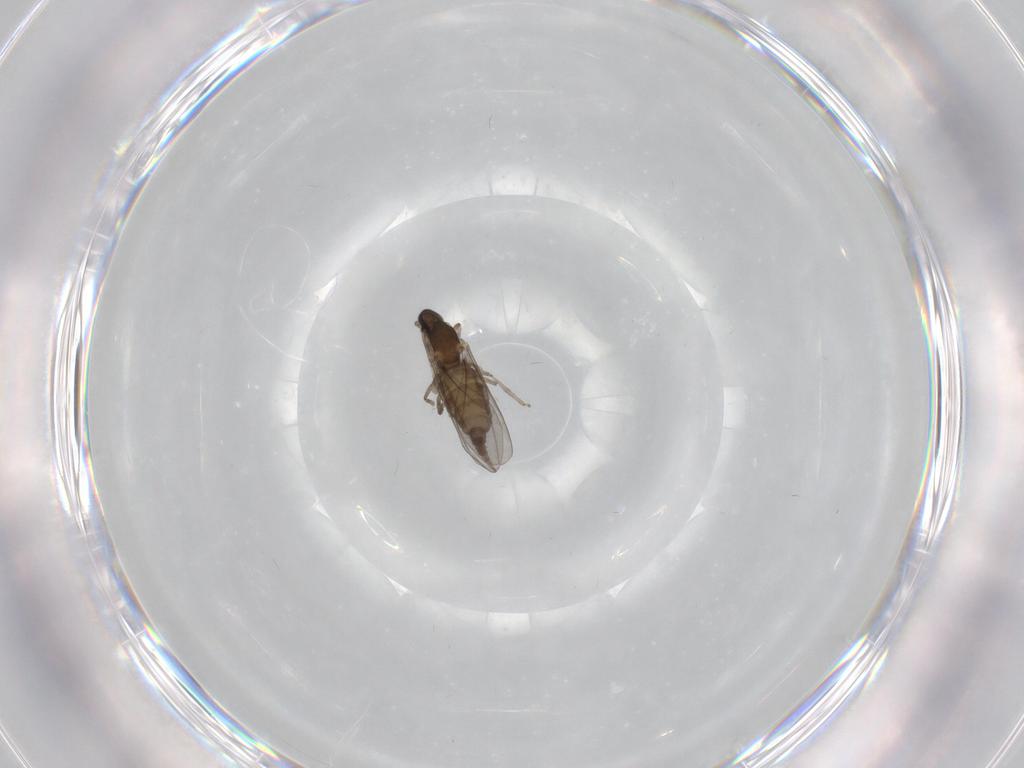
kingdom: Animalia
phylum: Arthropoda
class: Insecta
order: Diptera
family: Cecidomyiidae
